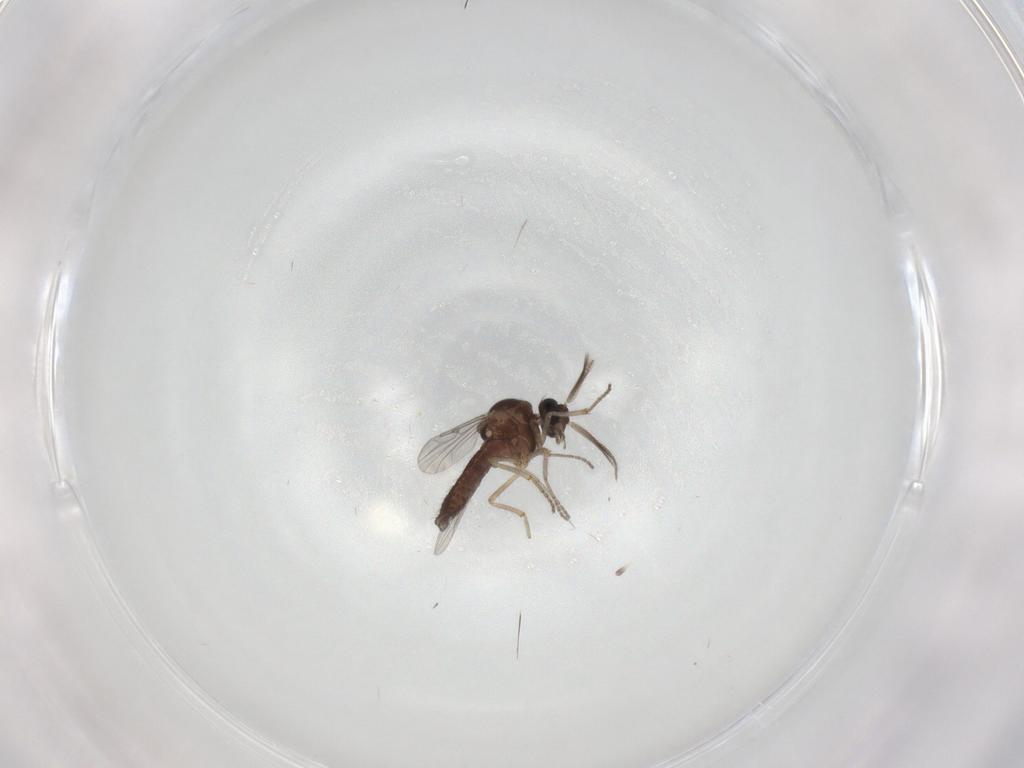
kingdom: Animalia
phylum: Arthropoda
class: Insecta
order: Diptera
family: Ceratopogonidae
